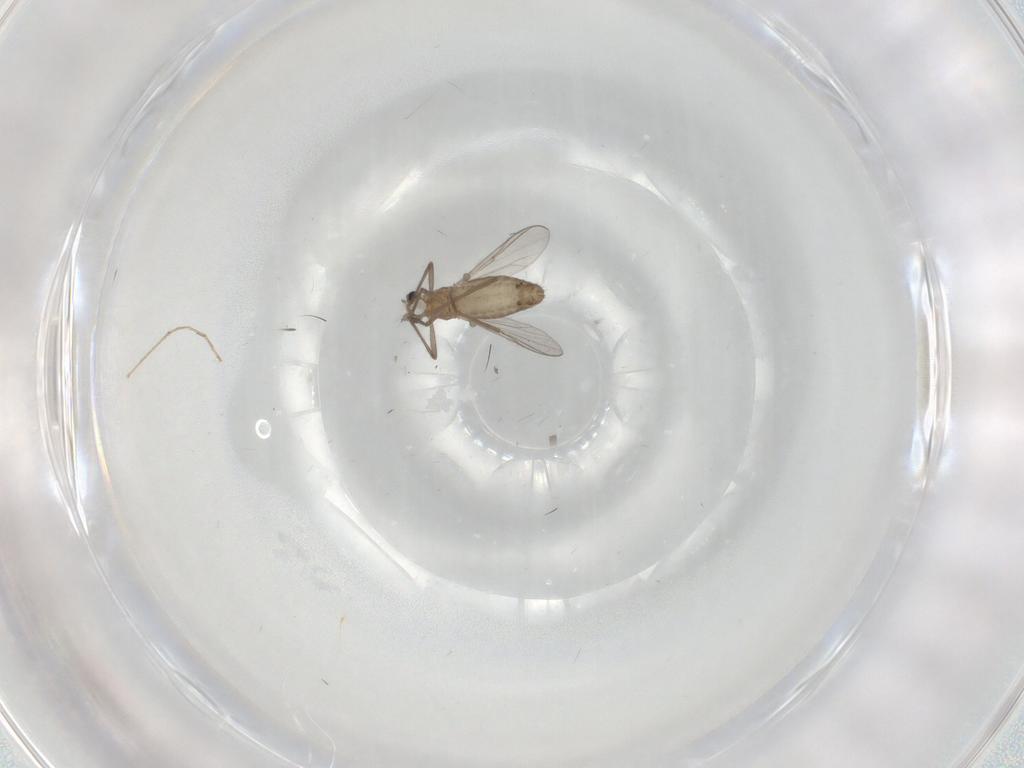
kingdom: Animalia
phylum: Arthropoda
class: Insecta
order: Diptera
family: Chironomidae
